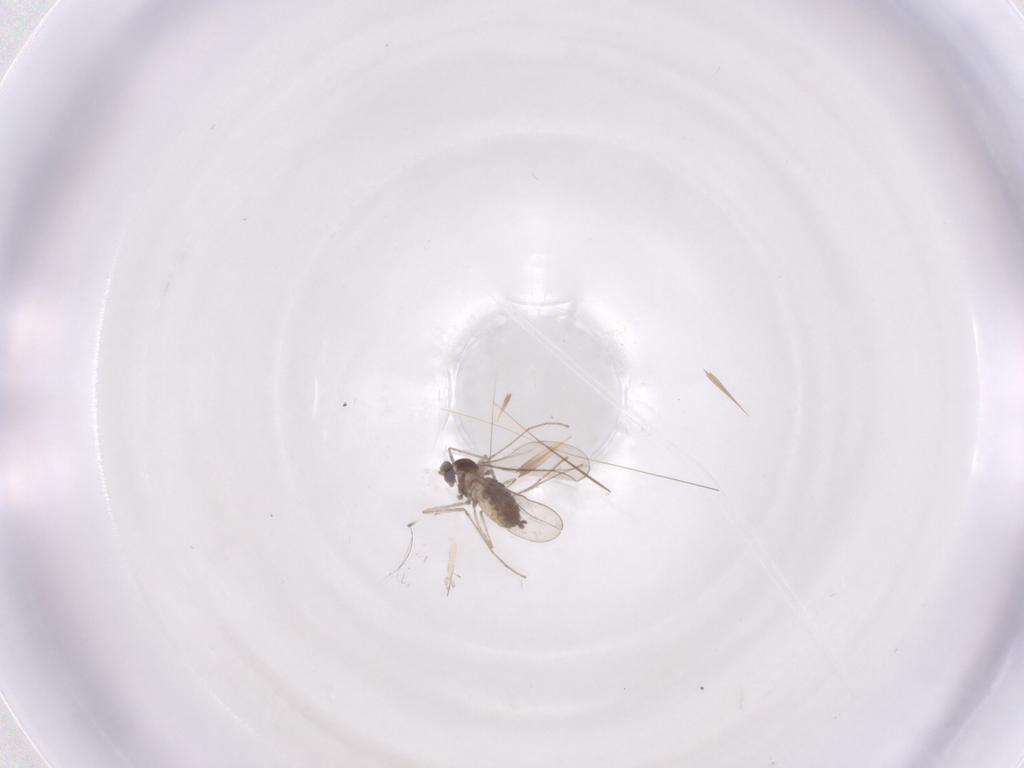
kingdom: Animalia
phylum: Arthropoda
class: Insecta
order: Diptera
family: Cecidomyiidae
